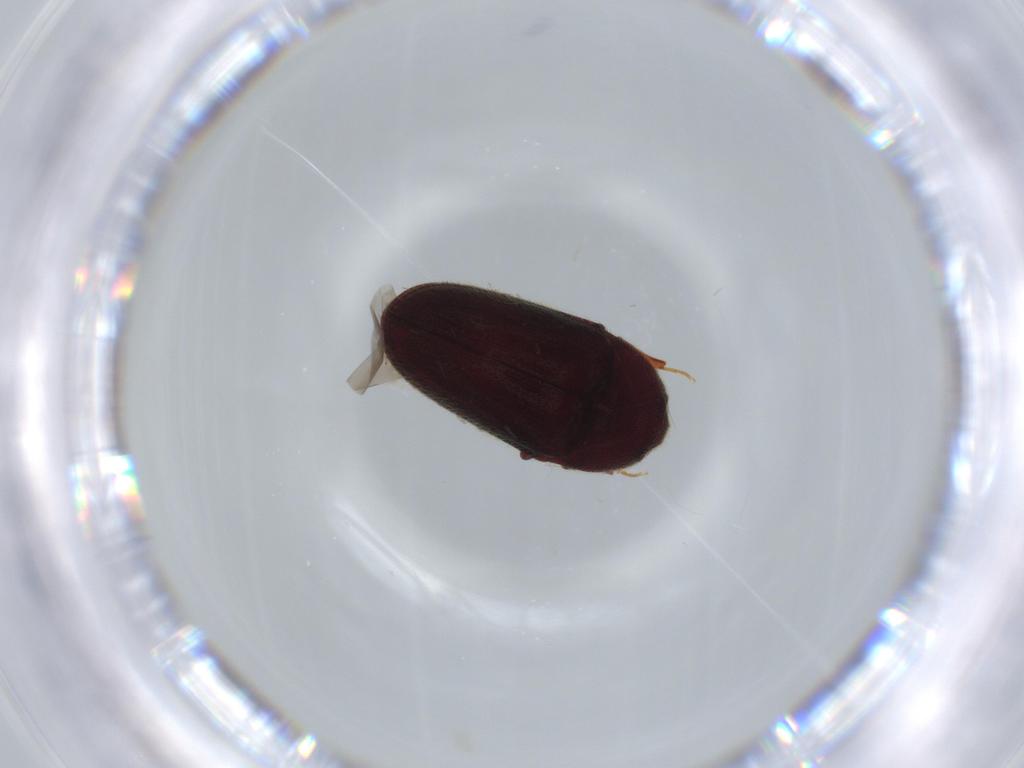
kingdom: Animalia
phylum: Arthropoda
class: Insecta
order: Coleoptera
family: Throscidae
